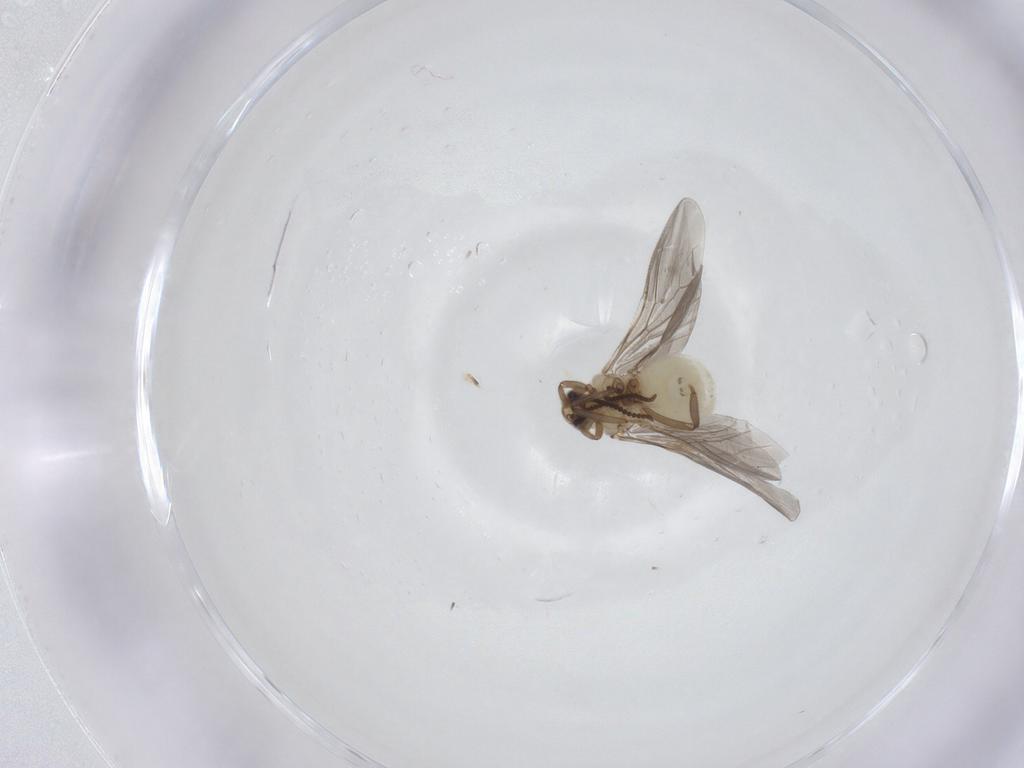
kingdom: Animalia
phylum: Arthropoda
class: Insecta
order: Neuroptera
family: Coniopterygidae
